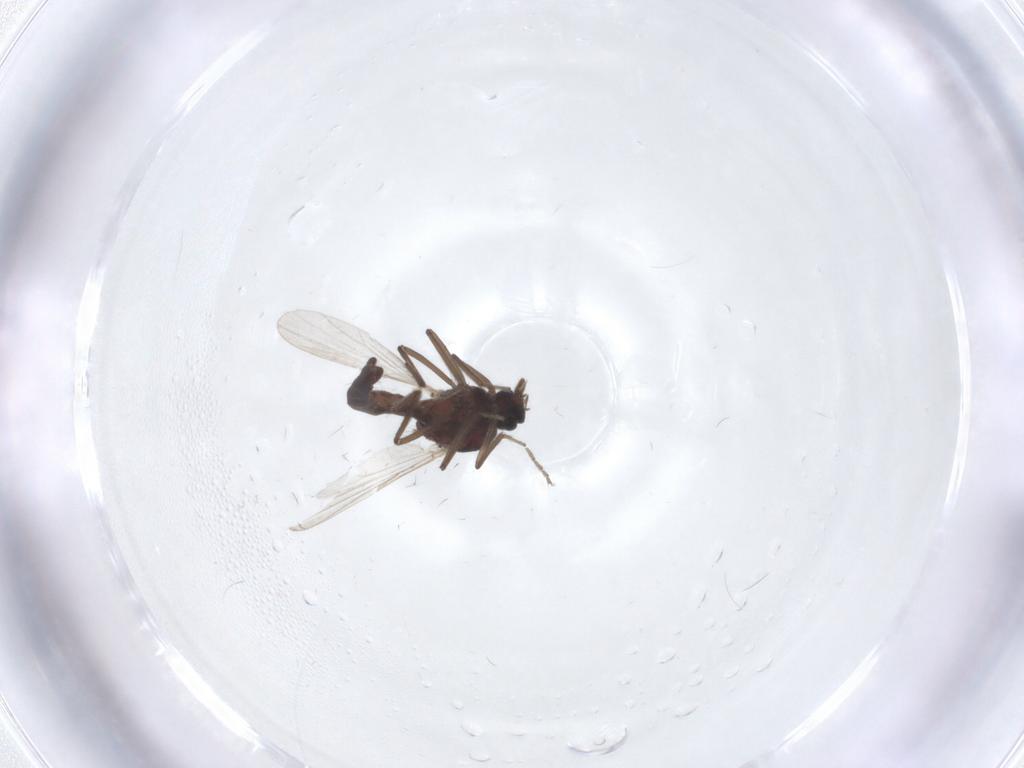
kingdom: Animalia
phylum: Arthropoda
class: Insecta
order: Diptera
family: Ceratopogonidae
